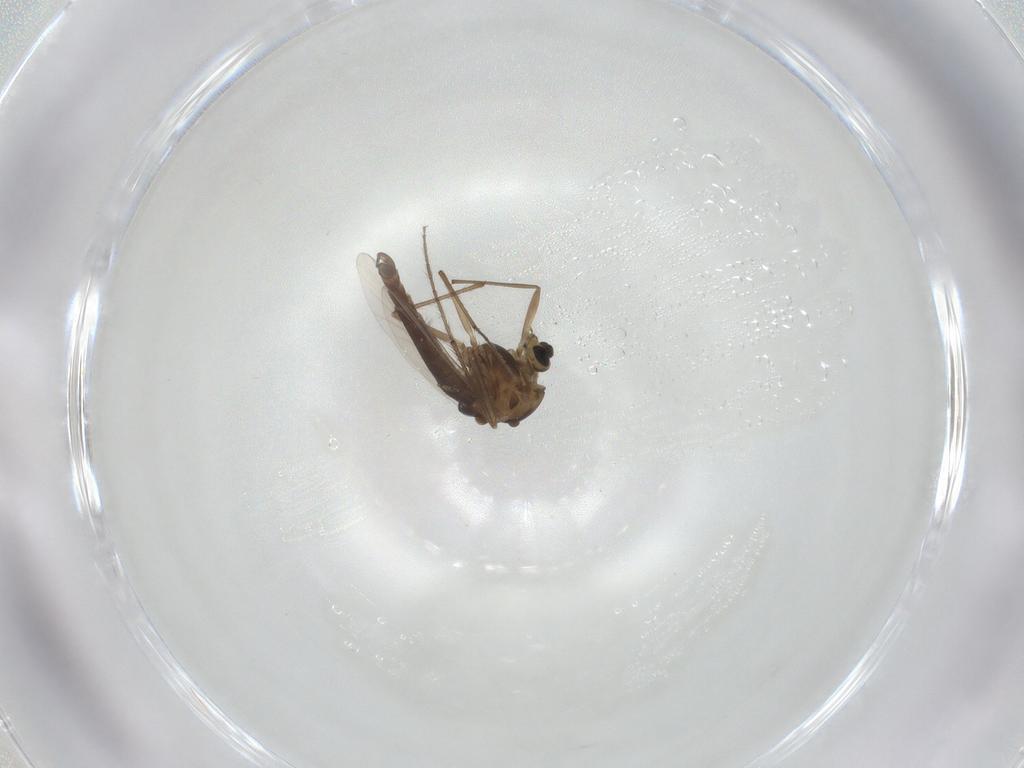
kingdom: Animalia
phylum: Arthropoda
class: Insecta
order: Diptera
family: Chironomidae
